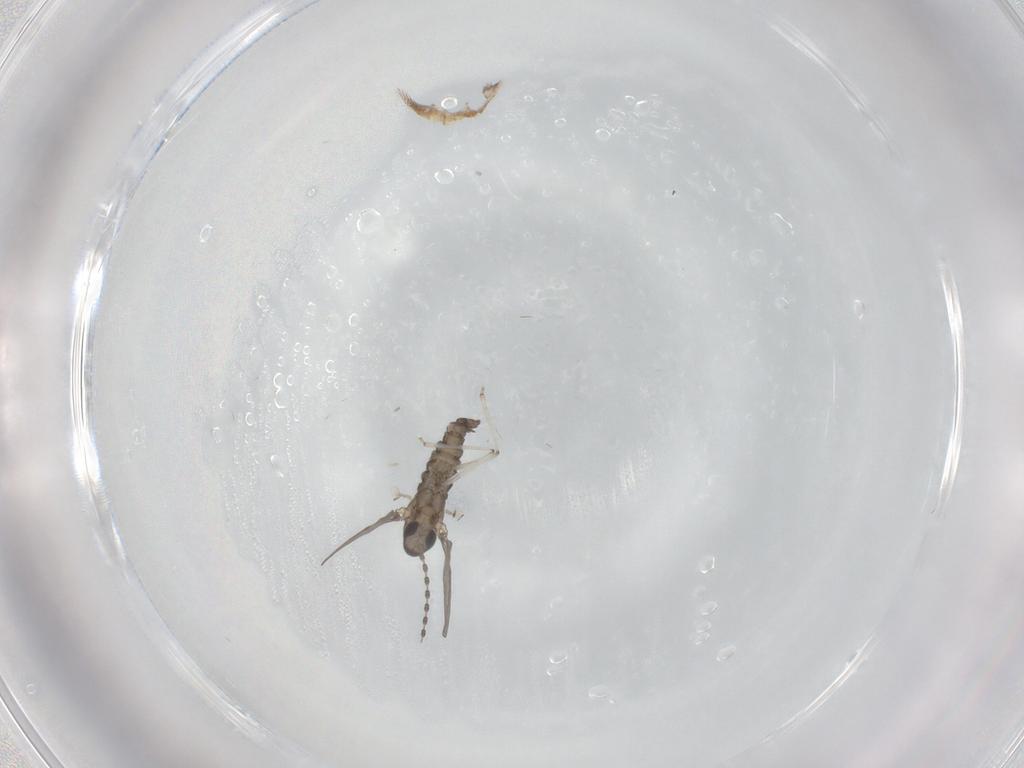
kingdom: Animalia
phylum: Arthropoda
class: Insecta
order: Diptera
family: Cecidomyiidae
